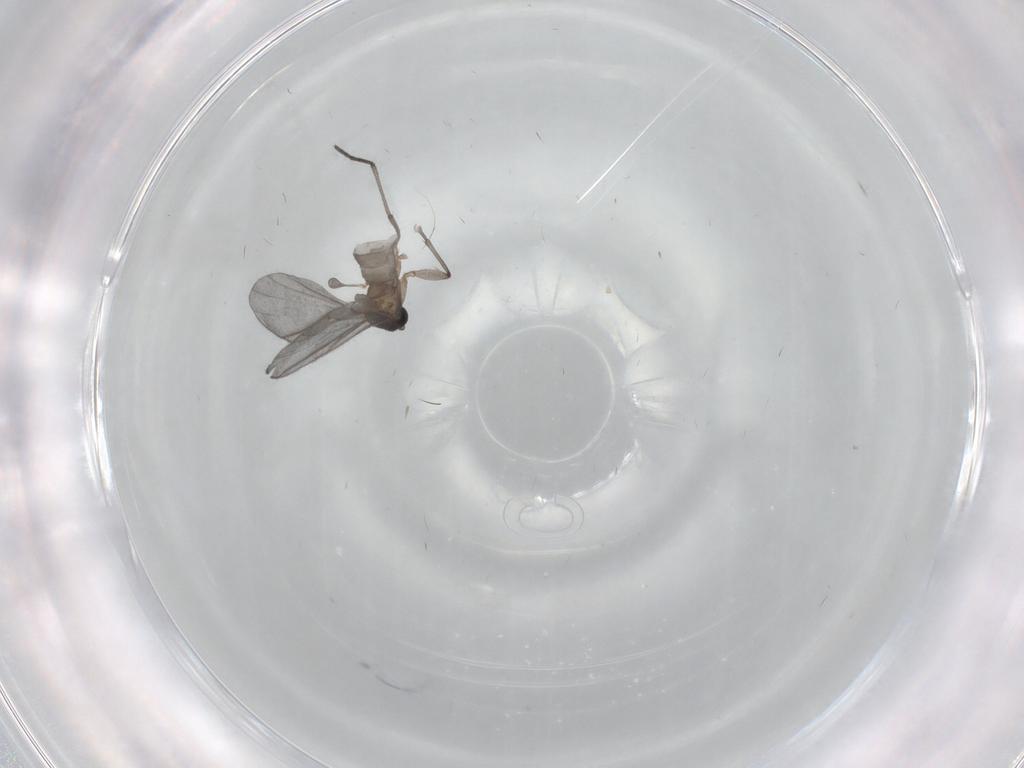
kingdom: Animalia
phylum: Arthropoda
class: Insecta
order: Diptera
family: Sciaridae
